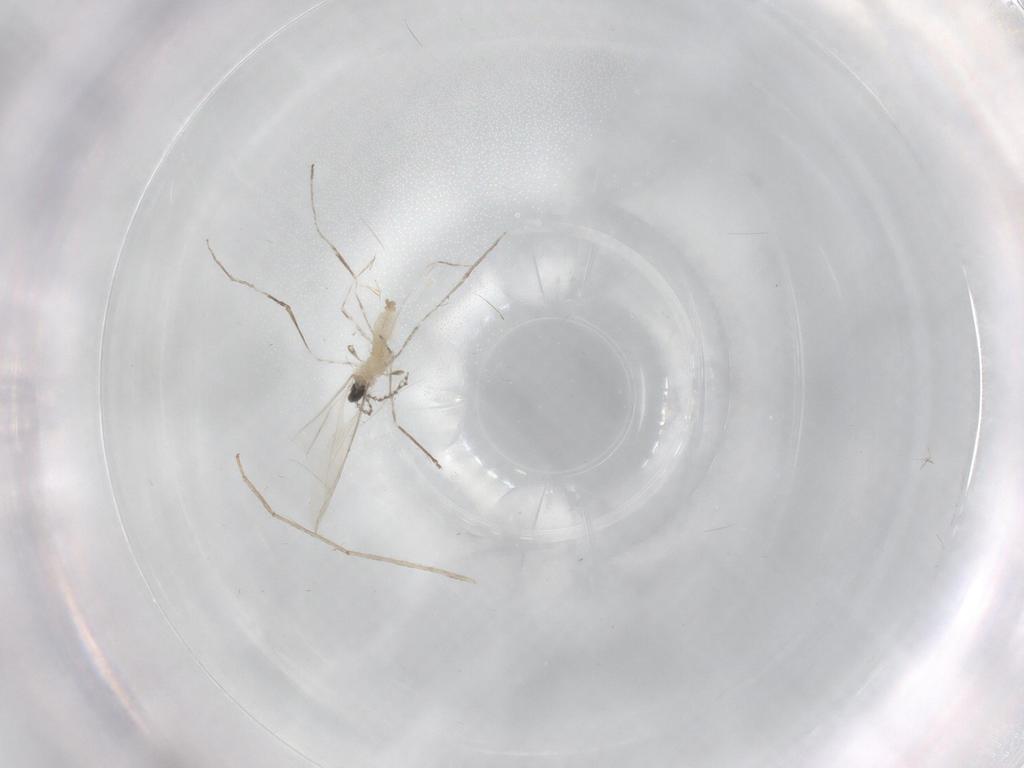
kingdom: Animalia
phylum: Arthropoda
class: Insecta
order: Diptera
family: Cecidomyiidae
